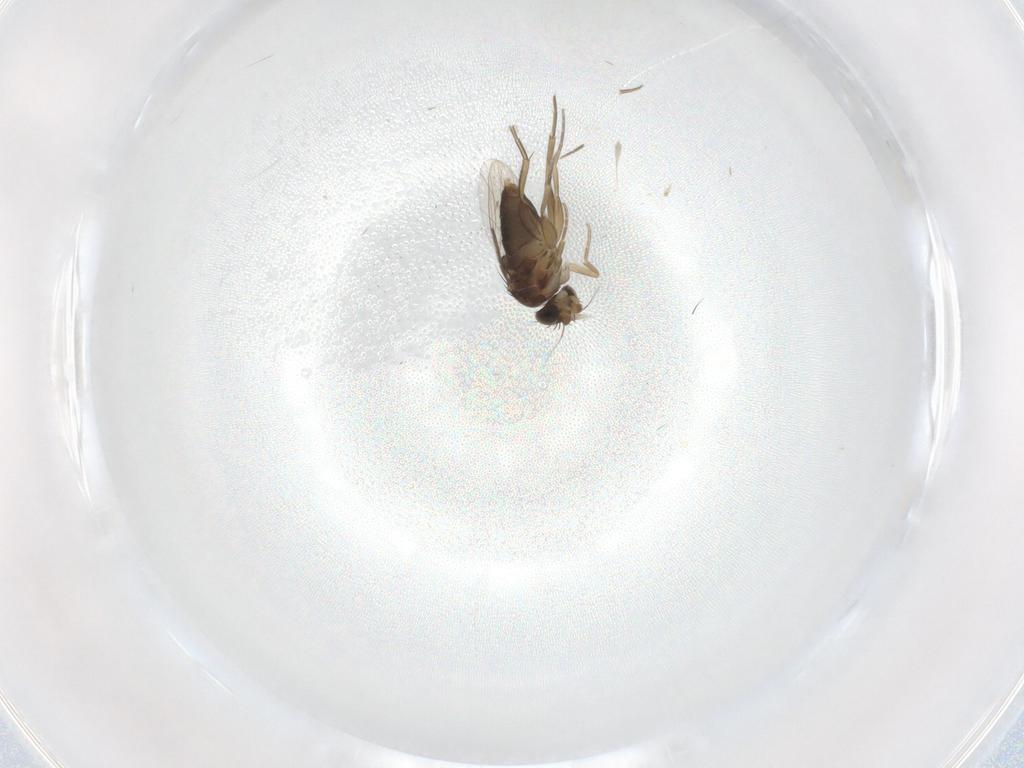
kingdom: Animalia
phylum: Arthropoda
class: Insecta
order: Diptera
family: Phoridae
